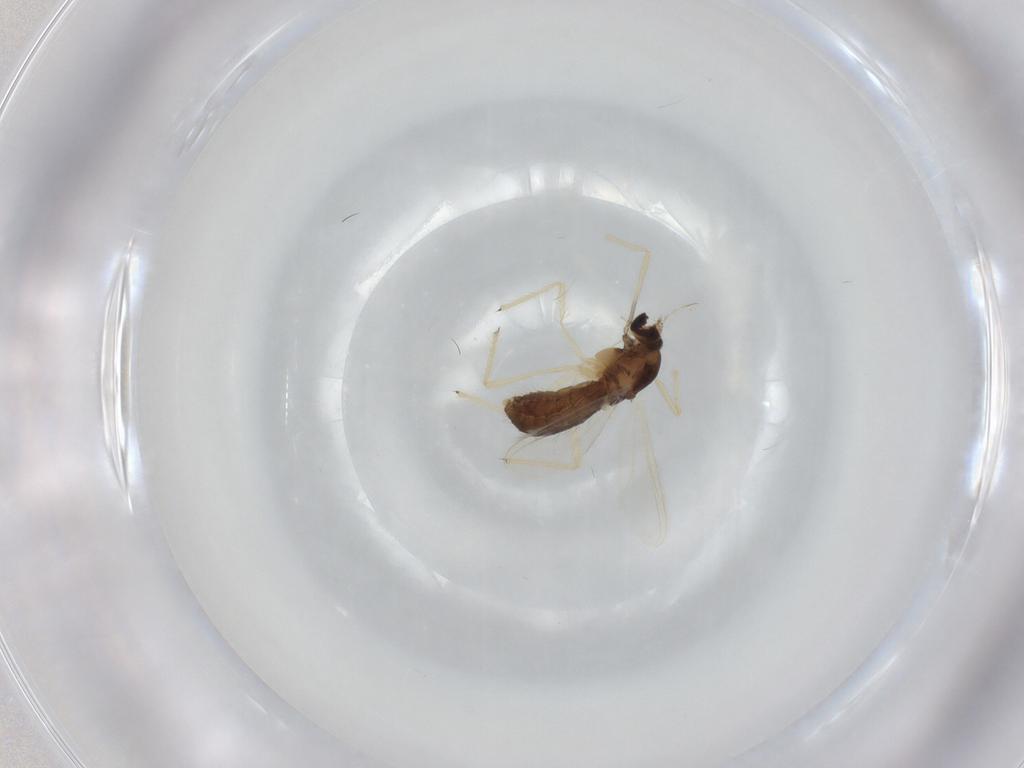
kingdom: Animalia
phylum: Arthropoda
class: Insecta
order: Diptera
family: Chironomidae
